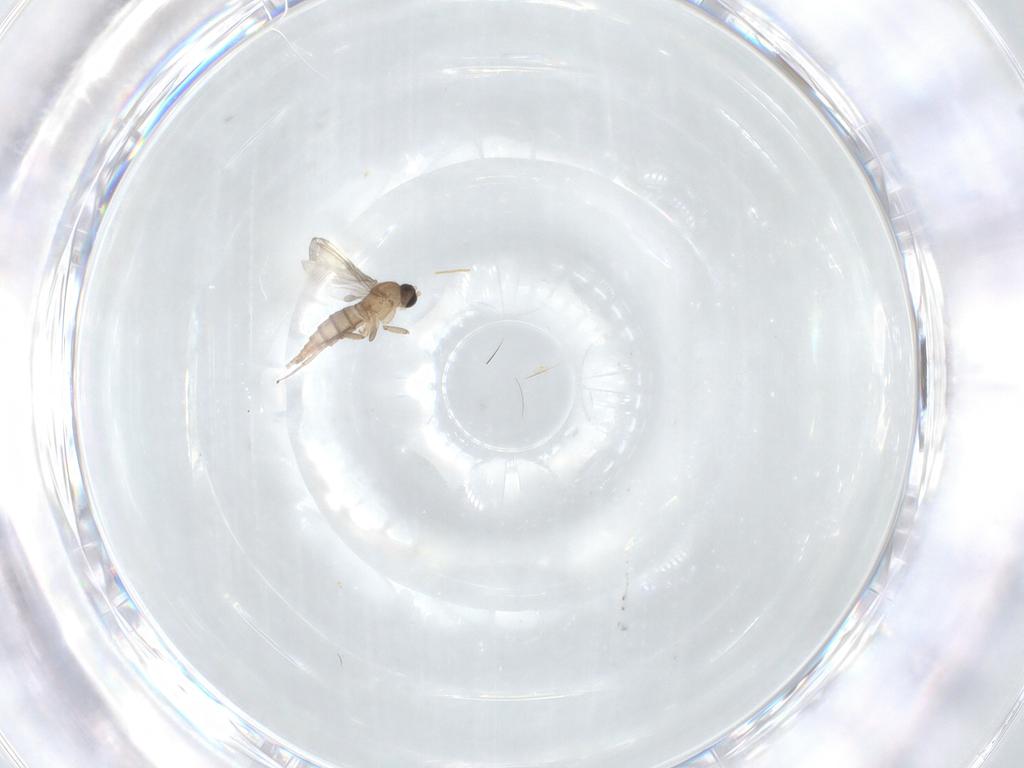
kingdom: Animalia
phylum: Arthropoda
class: Insecta
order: Diptera
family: Sciaridae
